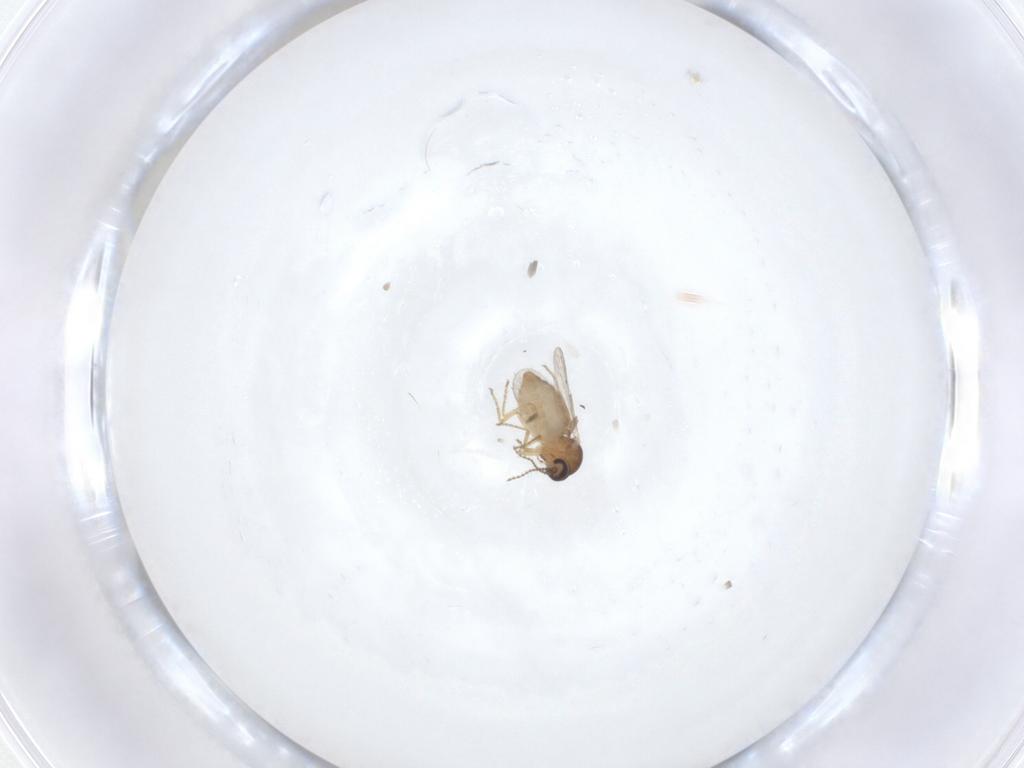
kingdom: Animalia
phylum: Arthropoda
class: Insecta
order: Diptera
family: Ceratopogonidae
